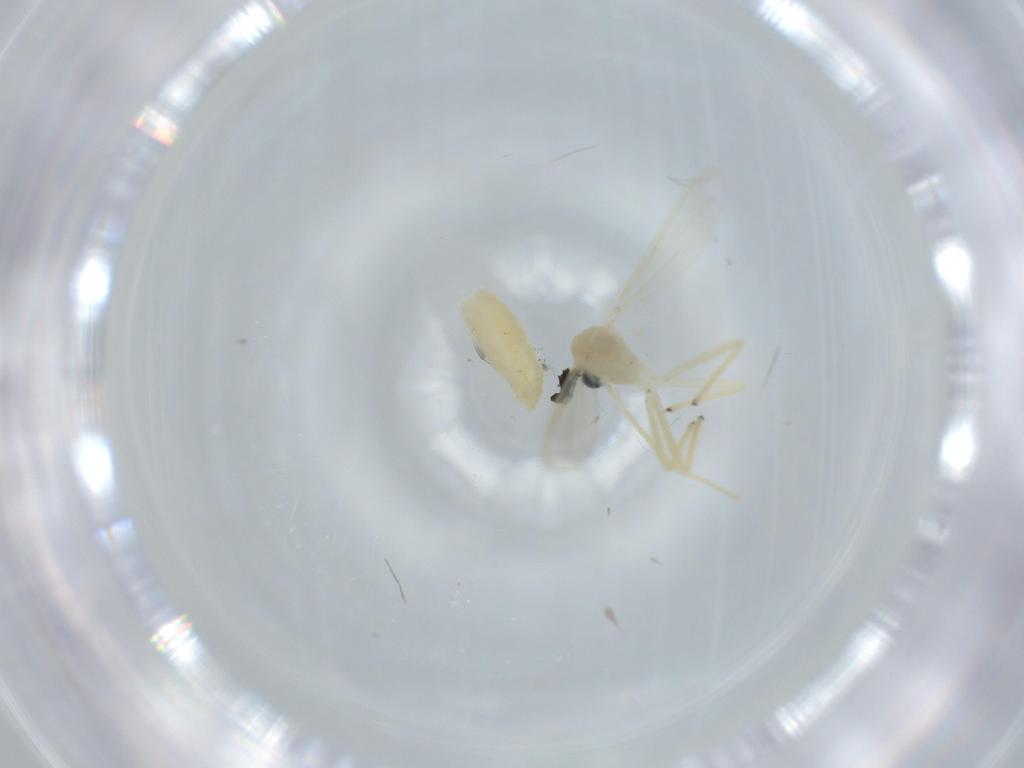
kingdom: Animalia
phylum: Arthropoda
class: Insecta
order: Diptera
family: Chironomidae
